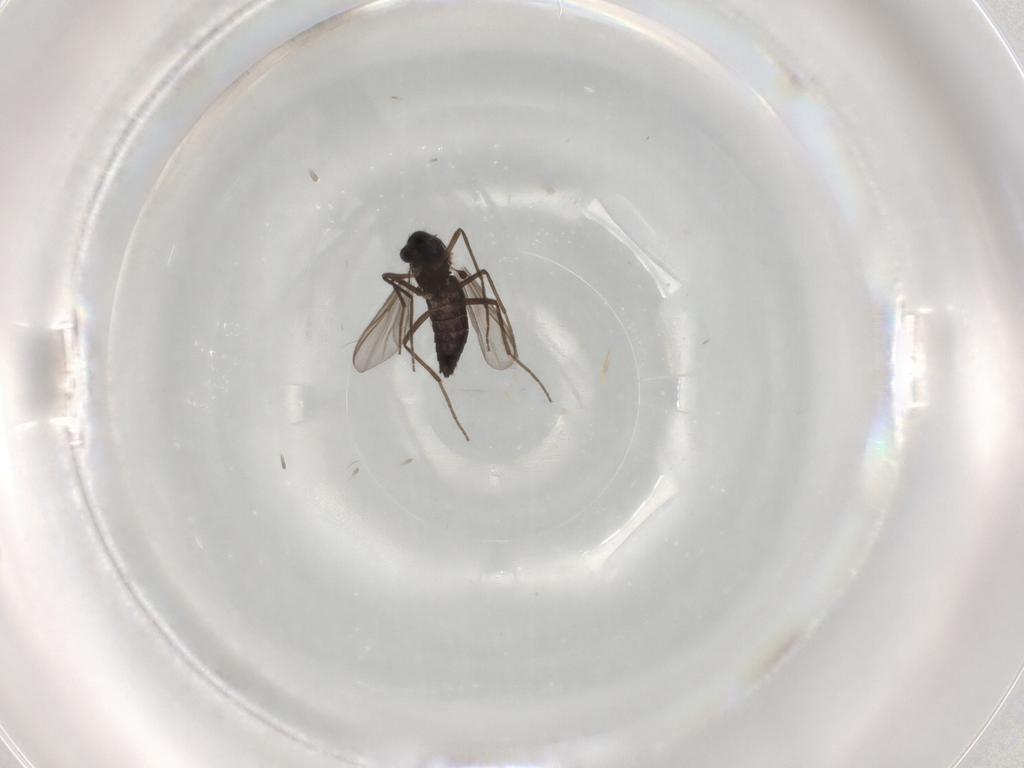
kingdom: Animalia
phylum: Arthropoda
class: Insecta
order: Diptera
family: Chironomidae
